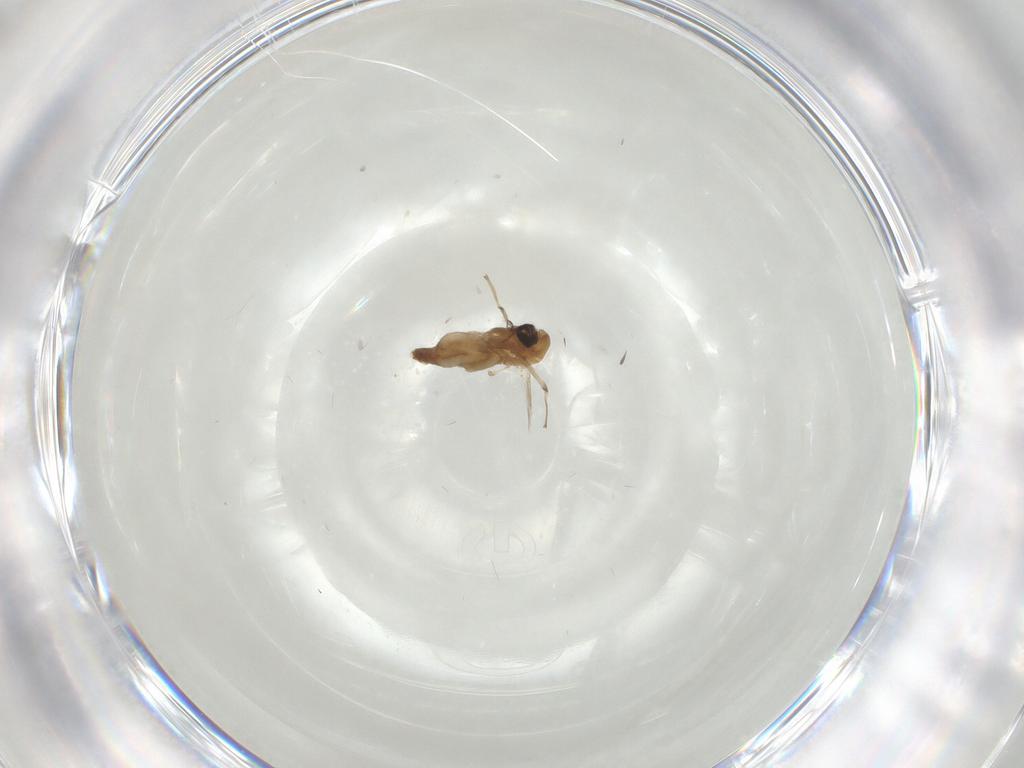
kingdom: Animalia
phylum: Arthropoda
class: Insecta
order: Diptera
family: Chironomidae
